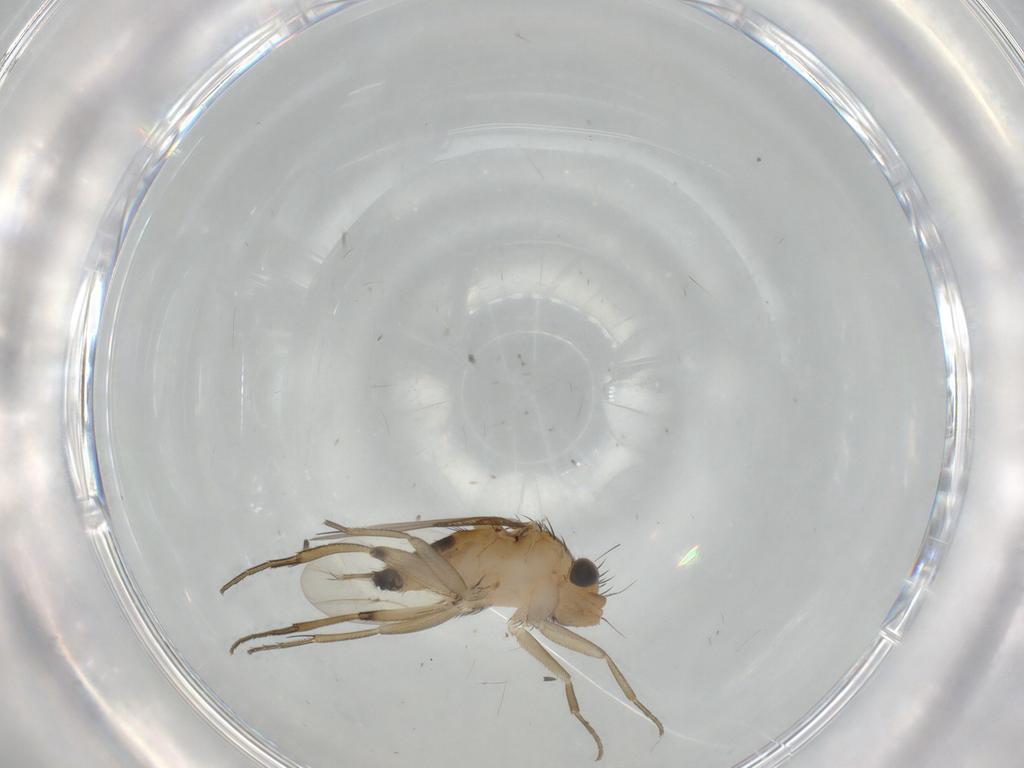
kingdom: Animalia
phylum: Arthropoda
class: Insecta
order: Diptera
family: Phoridae
